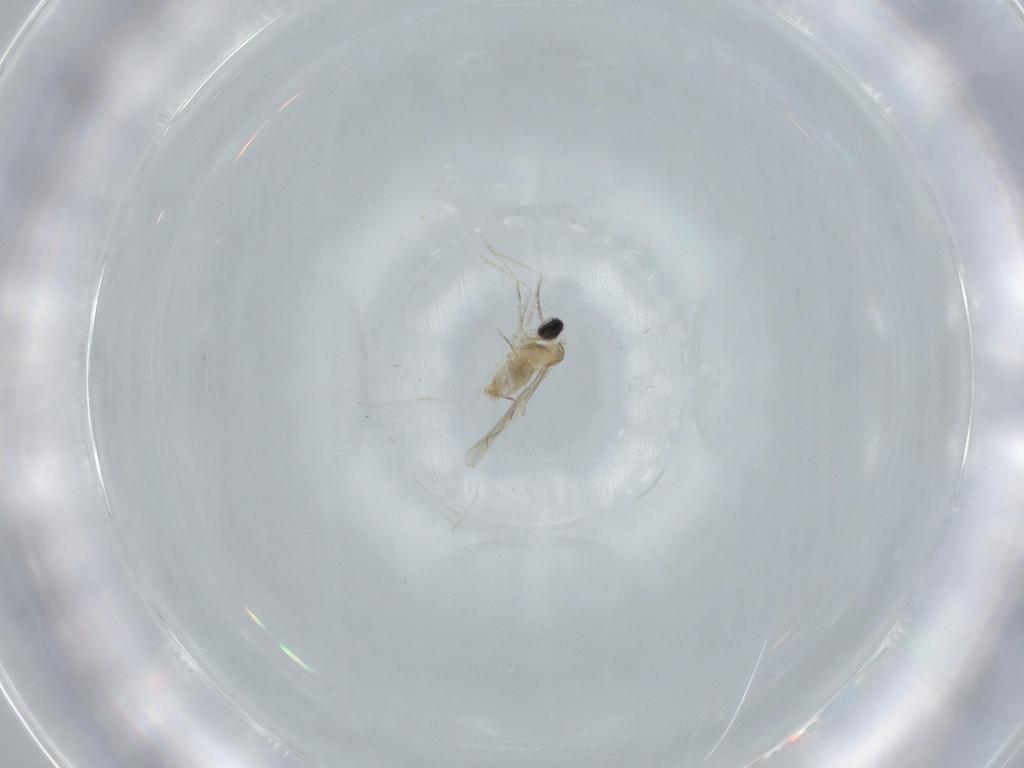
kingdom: Animalia
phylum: Arthropoda
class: Insecta
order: Diptera
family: Cecidomyiidae
